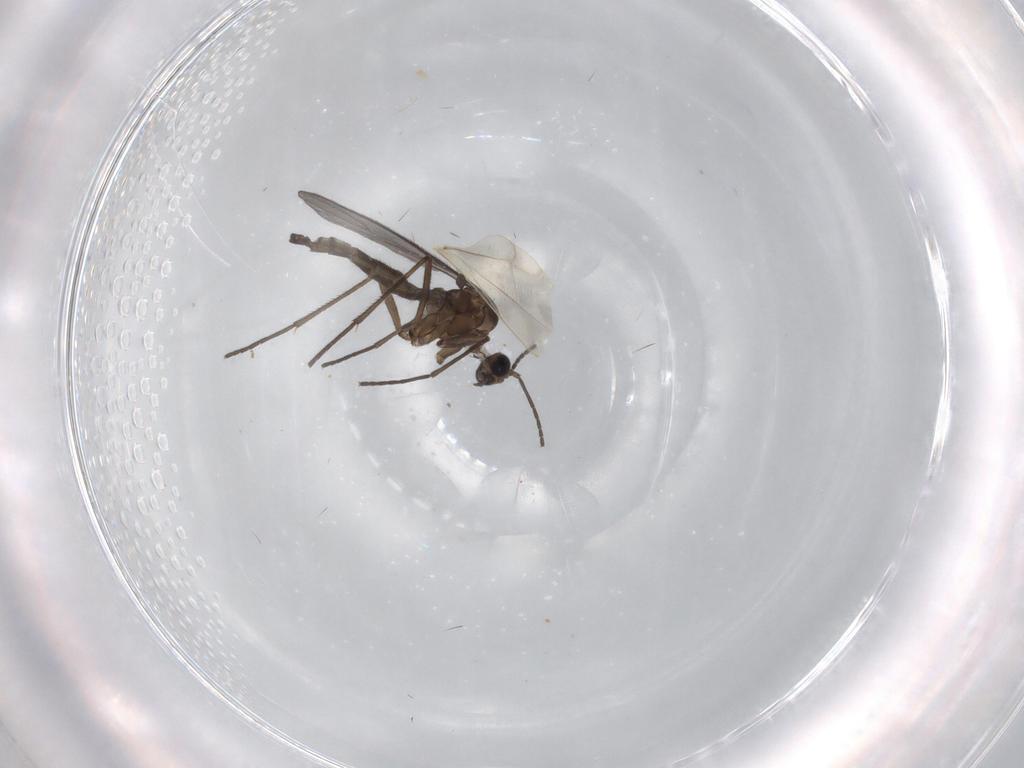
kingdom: Animalia
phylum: Arthropoda
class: Insecta
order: Diptera
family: Sciaridae
